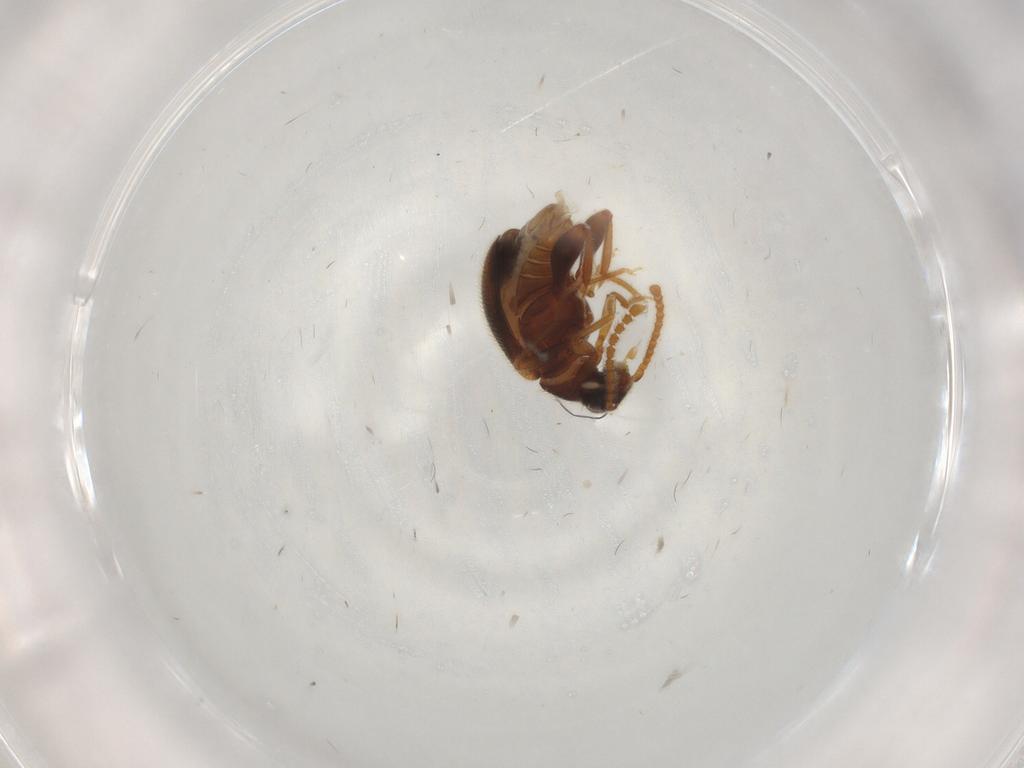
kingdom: Animalia
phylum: Arthropoda
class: Insecta
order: Coleoptera
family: Aderidae
